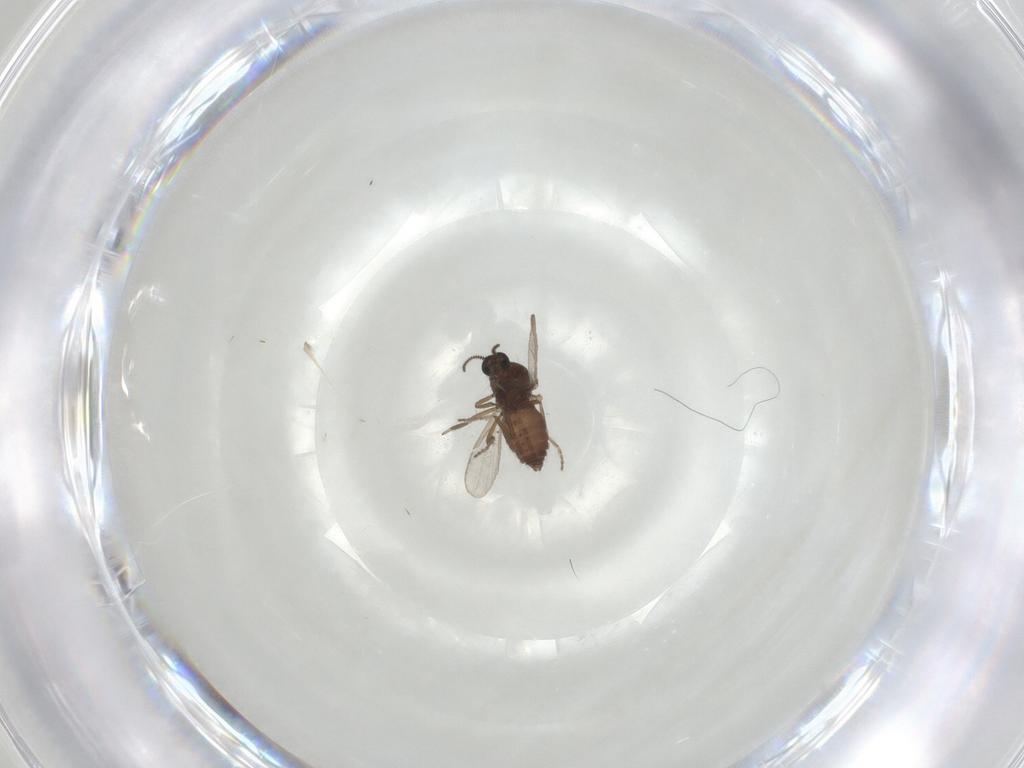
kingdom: Animalia
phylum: Arthropoda
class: Insecta
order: Diptera
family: Ceratopogonidae
